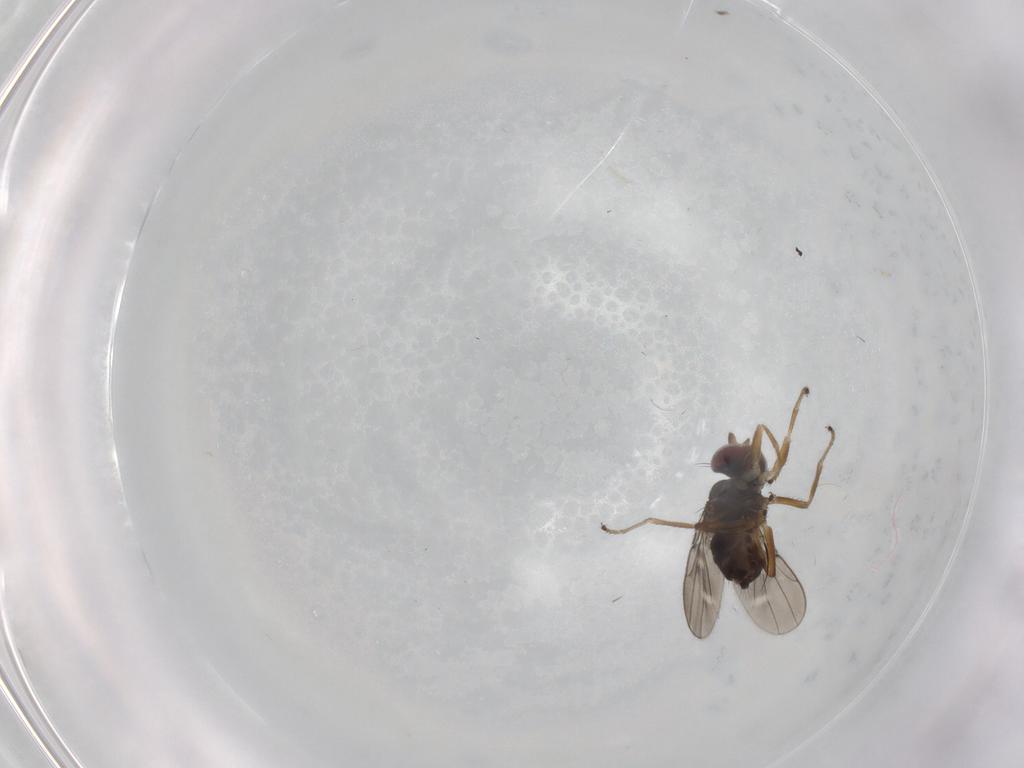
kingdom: Animalia
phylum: Arthropoda
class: Insecta
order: Diptera
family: Ephydridae
